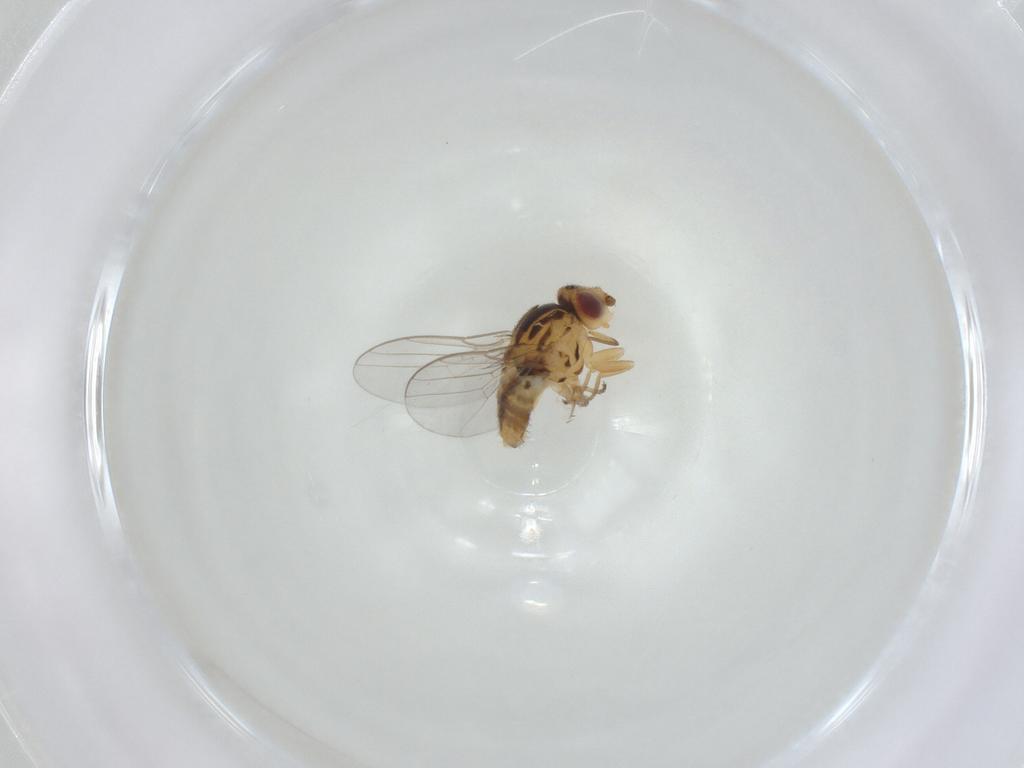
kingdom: Animalia
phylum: Arthropoda
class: Insecta
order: Diptera
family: Chloropidae
